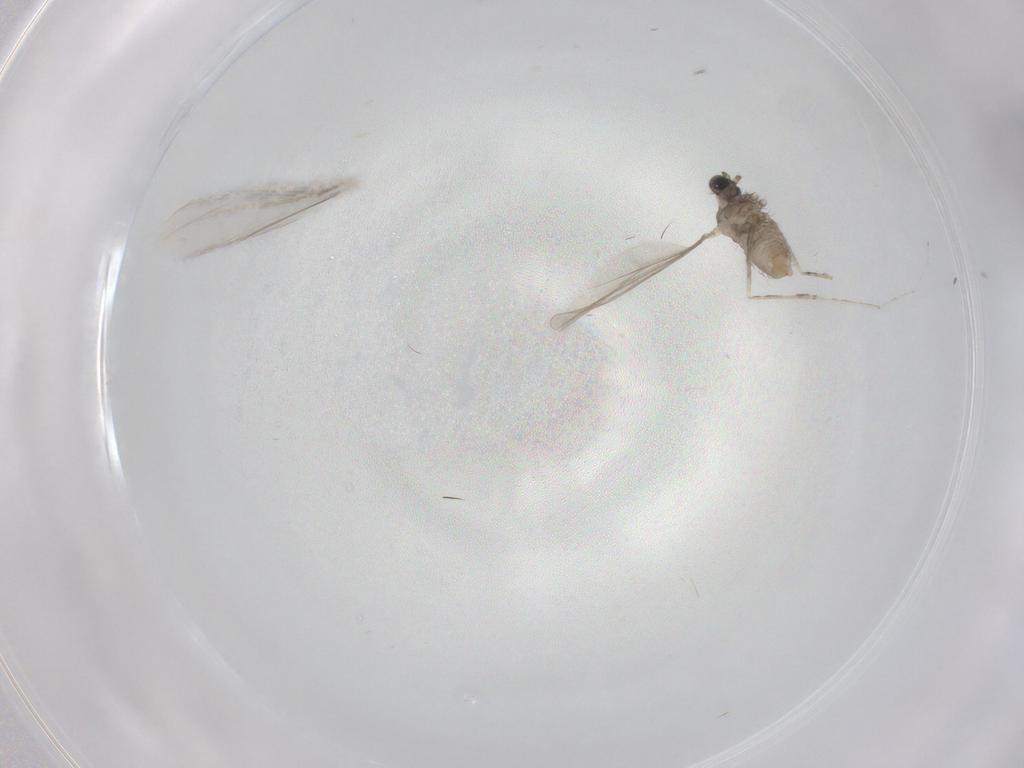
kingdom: Animalia
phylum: Arthropoda
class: Insecta
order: Diptera
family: Cecidomyiidae
